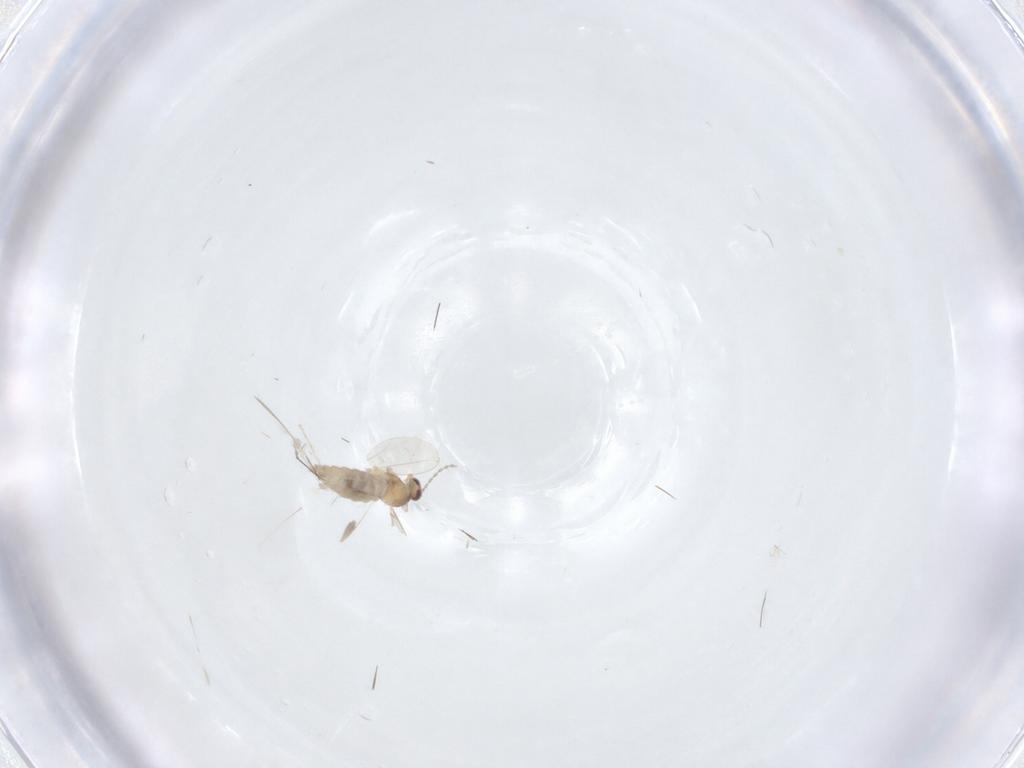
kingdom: Animalia
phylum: Arthropoda
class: Insecta
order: Diptera
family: Cecidomyiidae
